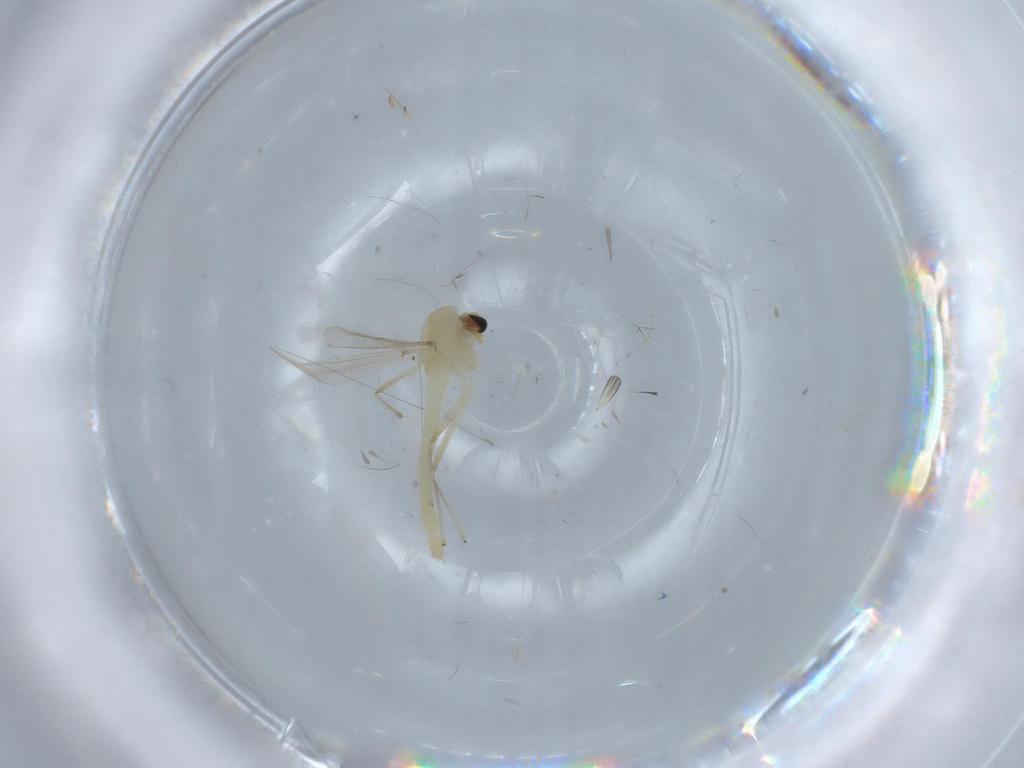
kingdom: Animalia
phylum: Arthropoda
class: Insecta
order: Diptera
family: Chironomidae
